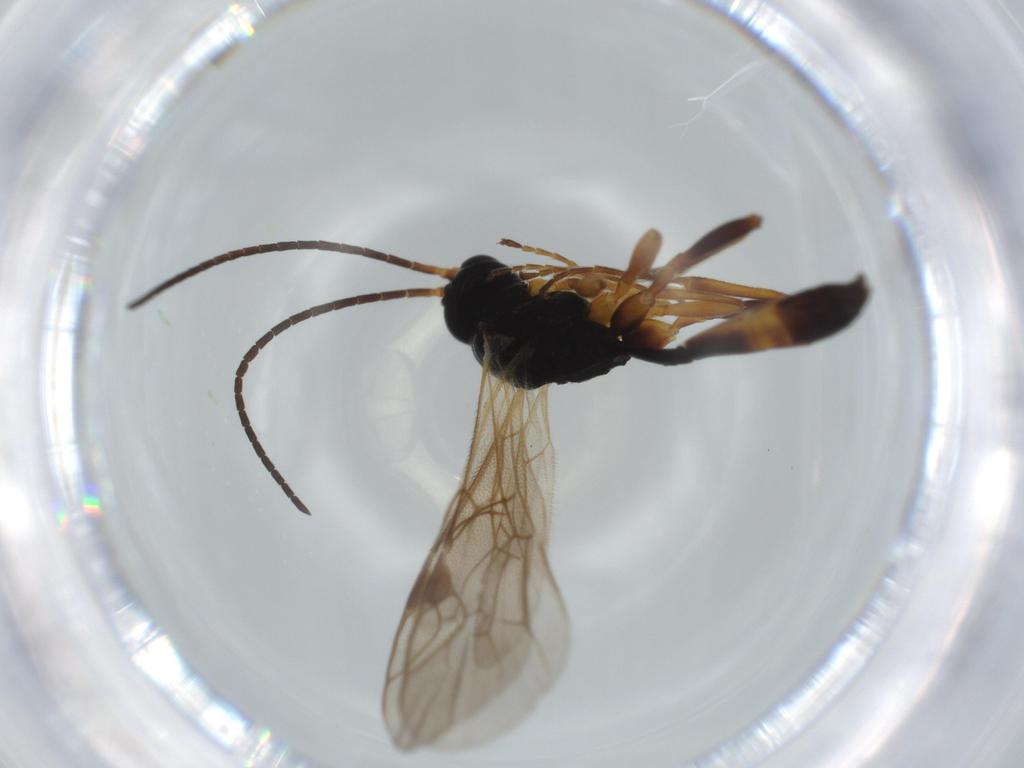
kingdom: Animalia
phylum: Arthropoda
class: Insecta
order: Hymenoptera
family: Ichneumonidae
